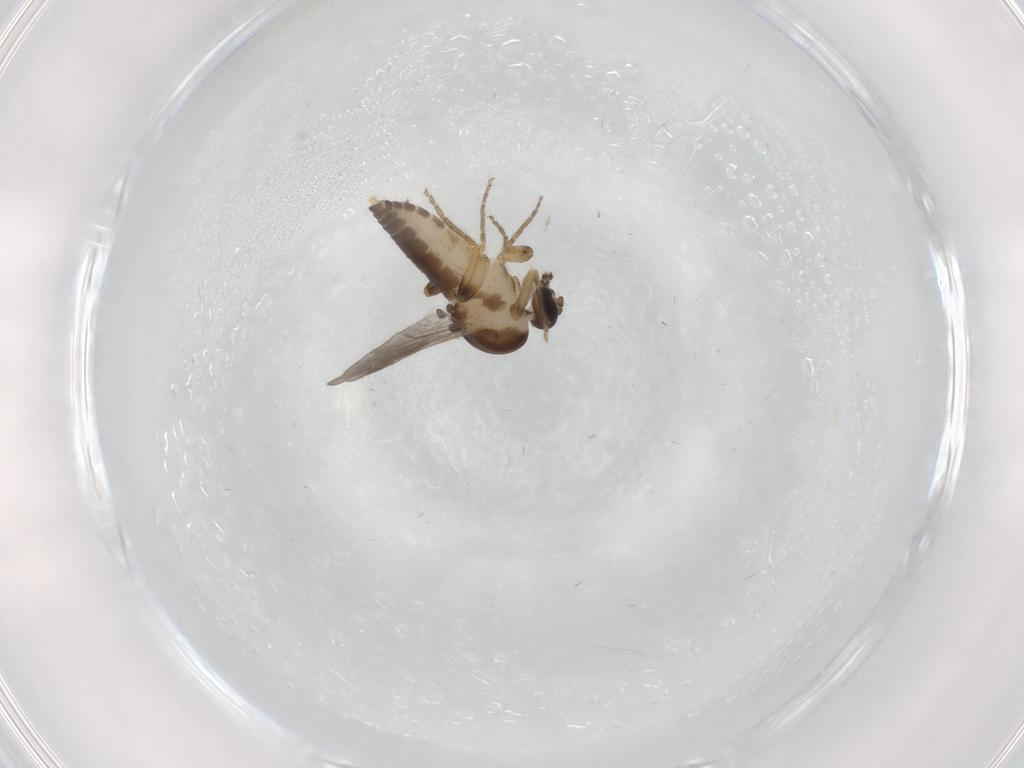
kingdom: Animalia
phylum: Arthropoda
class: Insecta
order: Diptera
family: Ceratopogonidae
